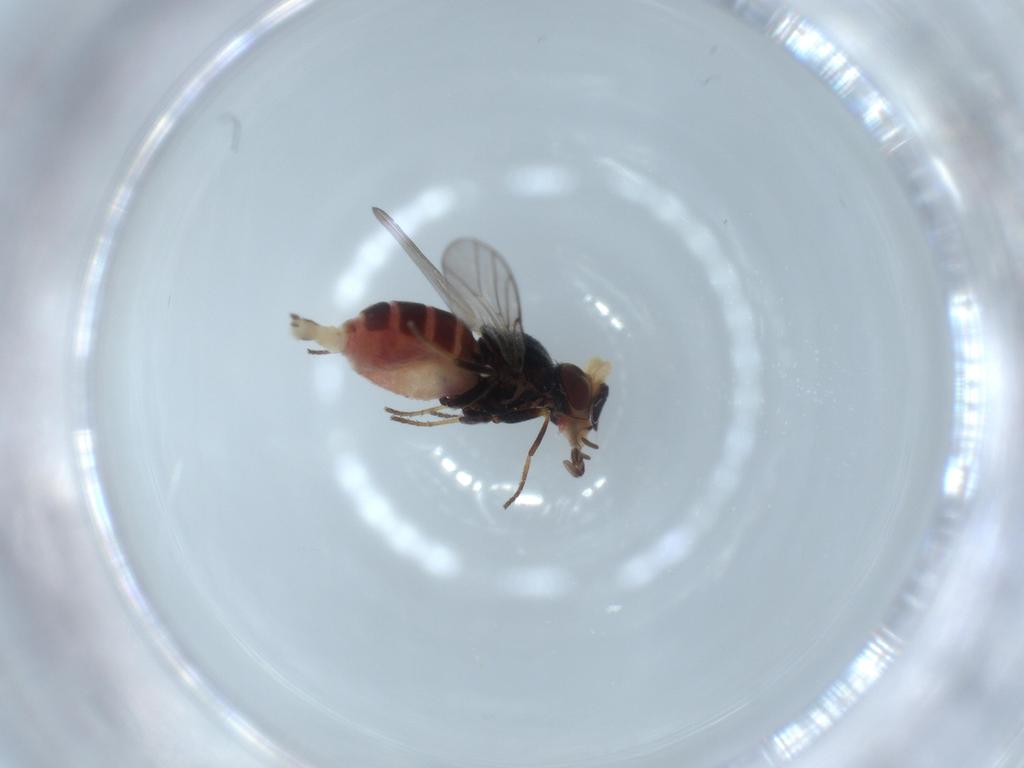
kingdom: Animalia
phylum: Arthropoda
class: Insecta
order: Diptera
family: Chloropidae
